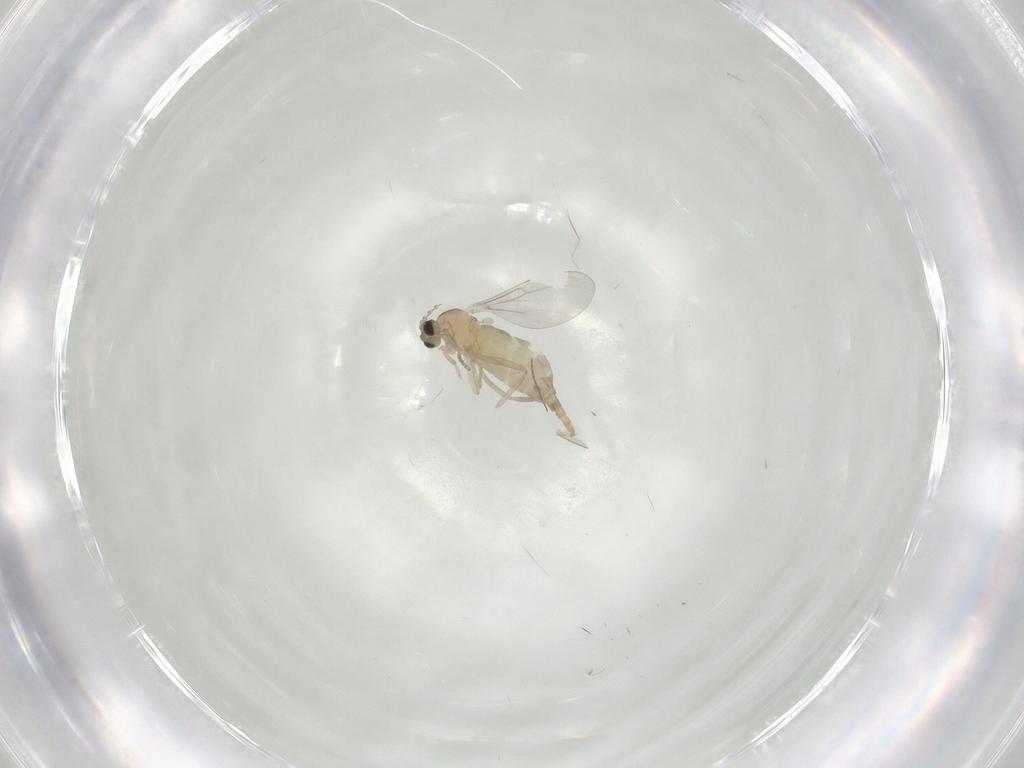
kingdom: Animalia
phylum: Arthropoda
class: Insecta
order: Diptera
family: Cecidomyiidae
